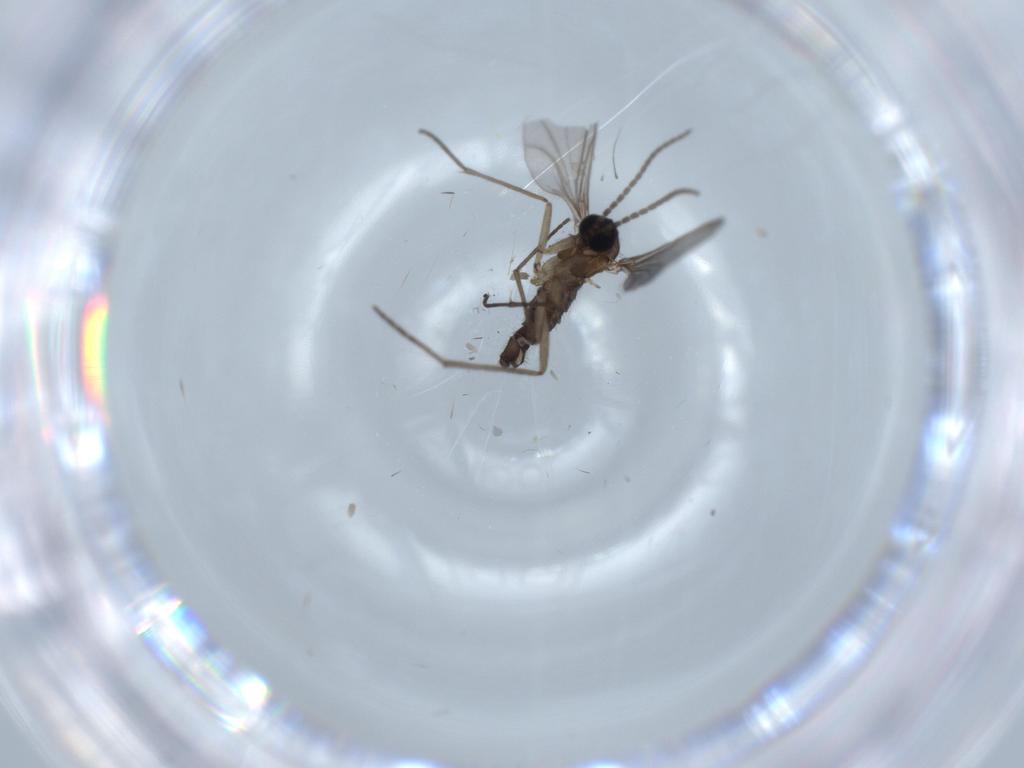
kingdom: Animalia
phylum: Arthropoda
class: Insecta
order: Diptera
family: Sciaridae
